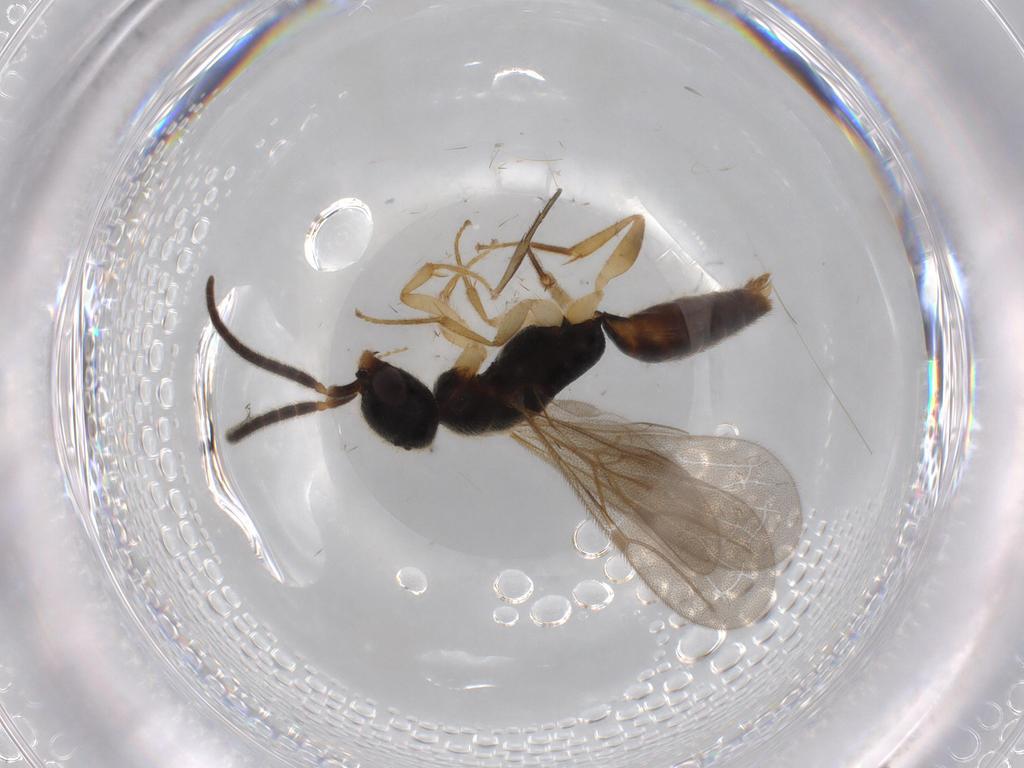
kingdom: Animalia
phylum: Arthropoda
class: Insecta
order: Hymenoptera
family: Bethylidae
